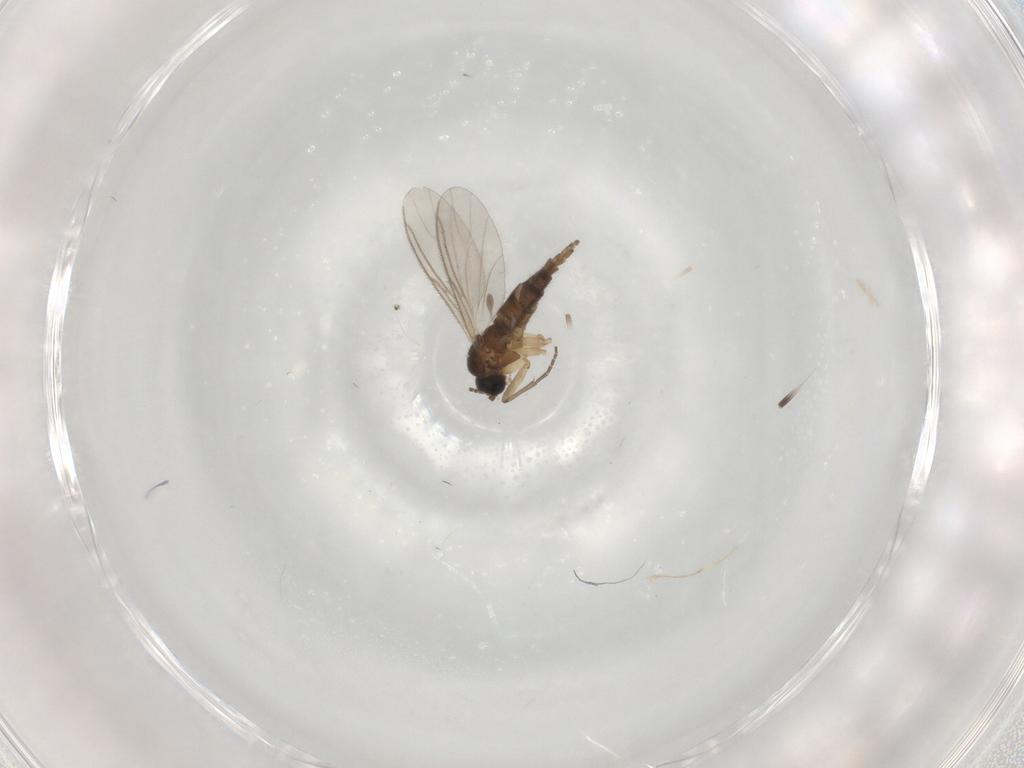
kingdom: Animalia
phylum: Arthropoda
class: Insecta
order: Diptera
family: Sciaridae
